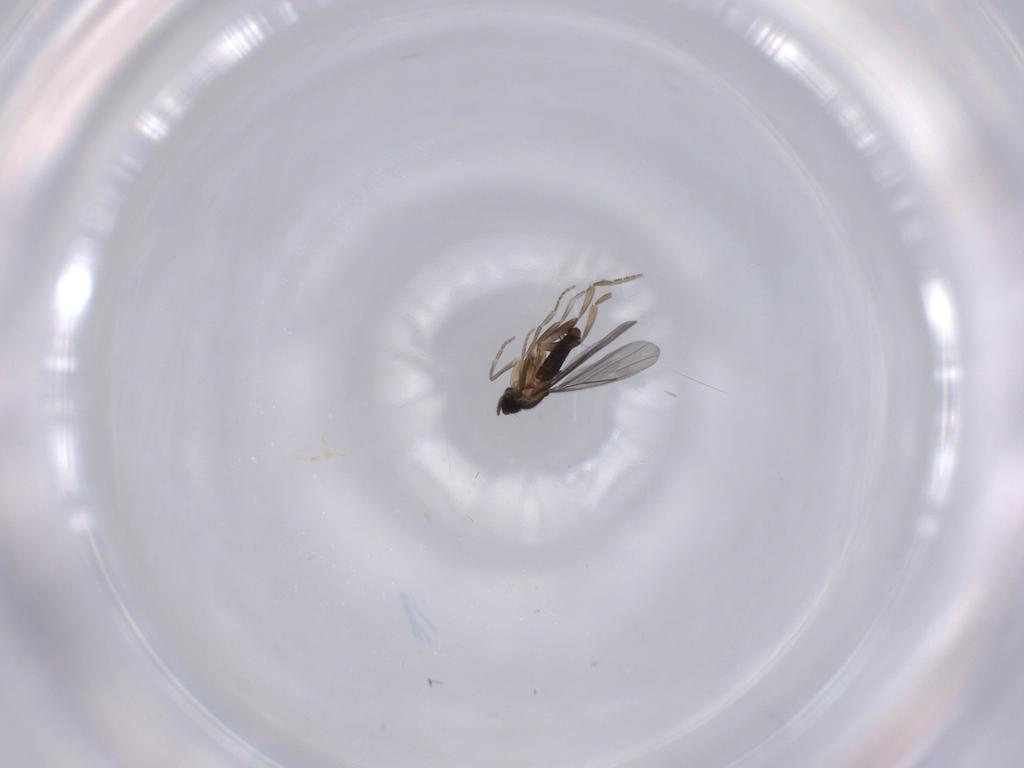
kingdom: Animalia
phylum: Arthropoda
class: Insecta
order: Diptera
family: Phoridae
